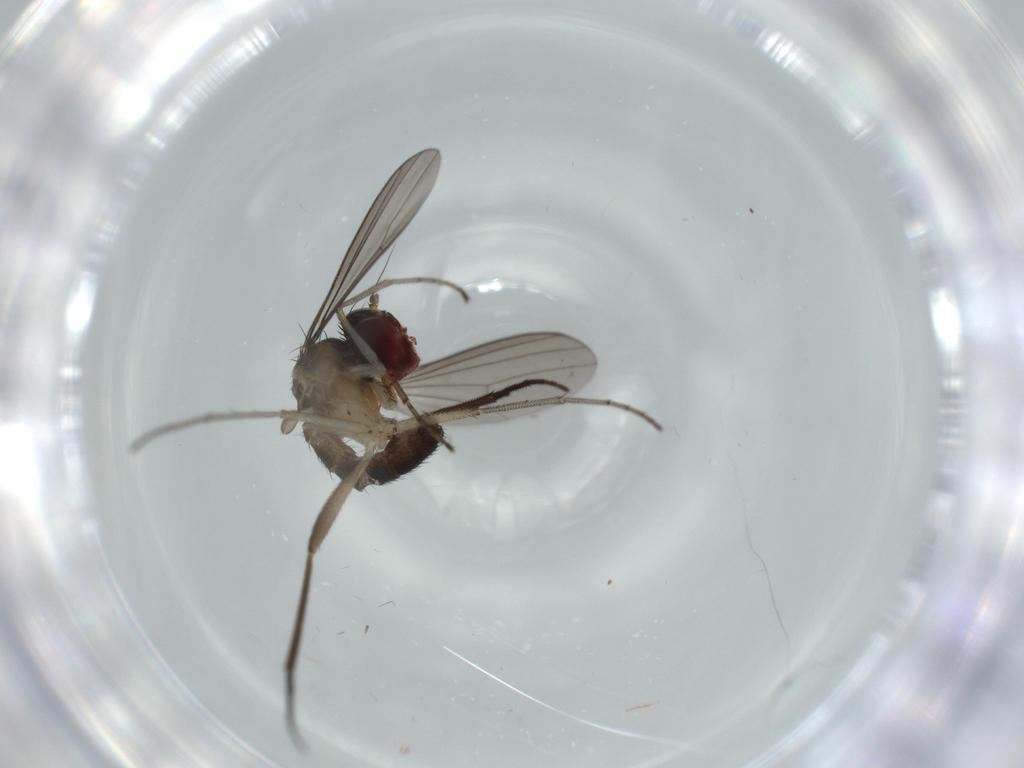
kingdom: Animalia
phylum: Arthropoda
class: Insecta
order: Diptera
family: Dolichopodidae
